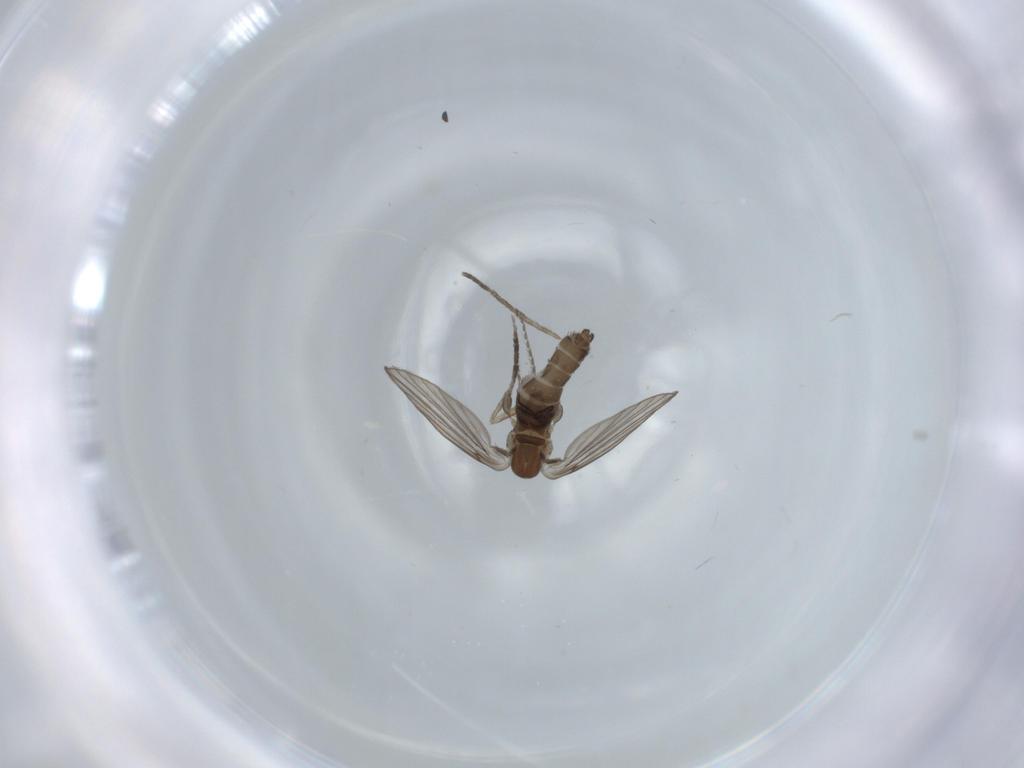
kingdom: Animalia
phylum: Arthropoda
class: Insecta
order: Diptera
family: Psychodidae
